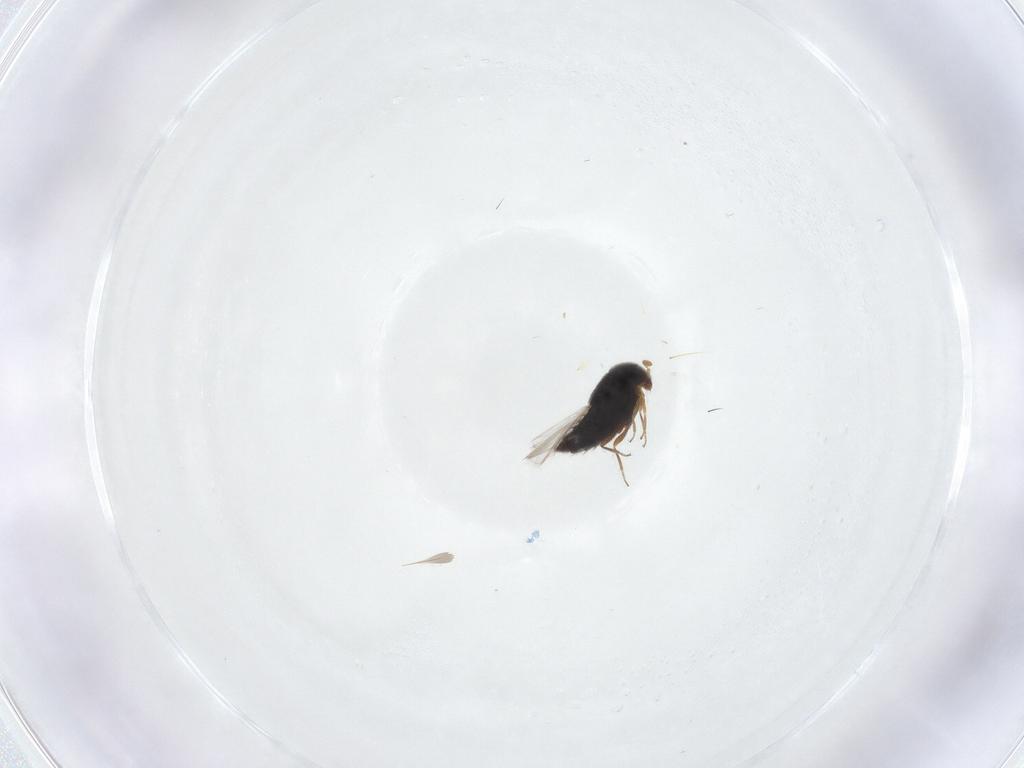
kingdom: Animalia
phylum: Arthropoda
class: Insecta
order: Coleoptera
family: Staphylinidae
